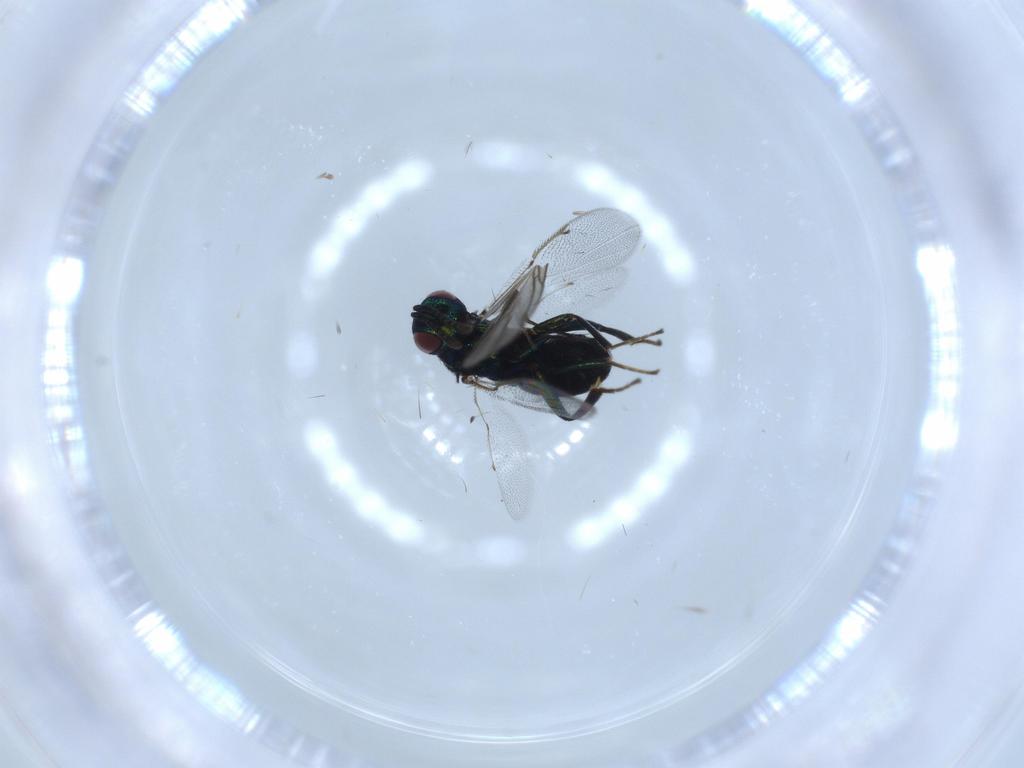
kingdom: Animalia
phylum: Arthropoda
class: Insecta
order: Hymenoptera
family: Ormyridae
